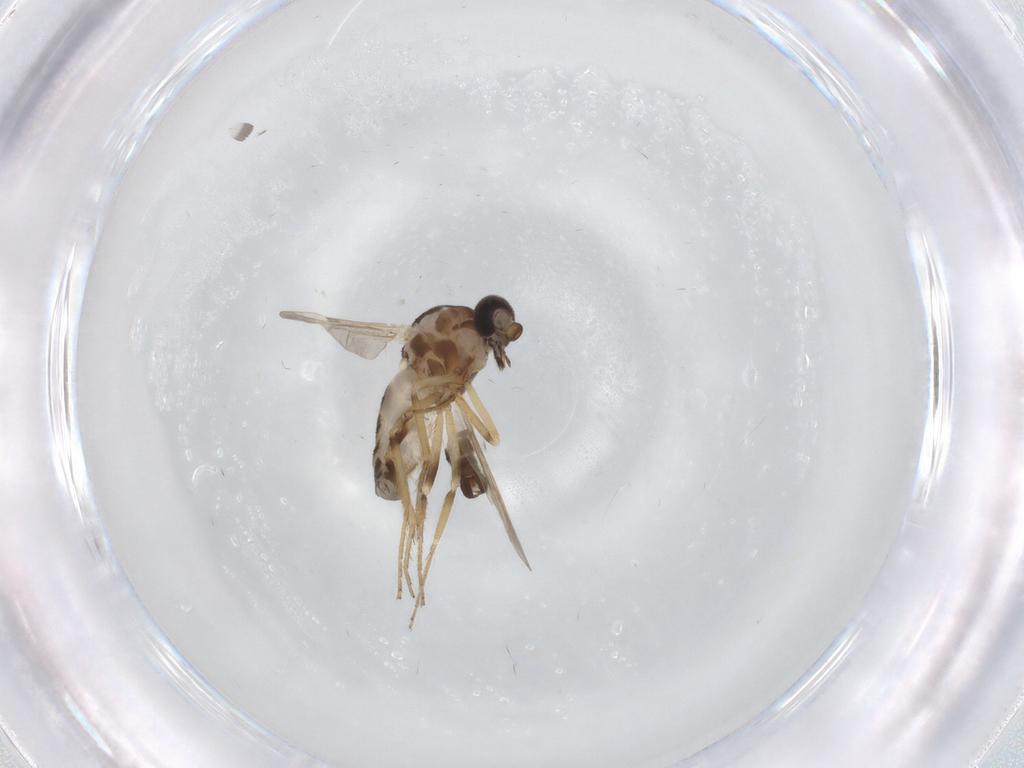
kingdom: Animalia
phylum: Arthropoda
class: Insecta
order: Diptera
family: Ceratopogonidae
